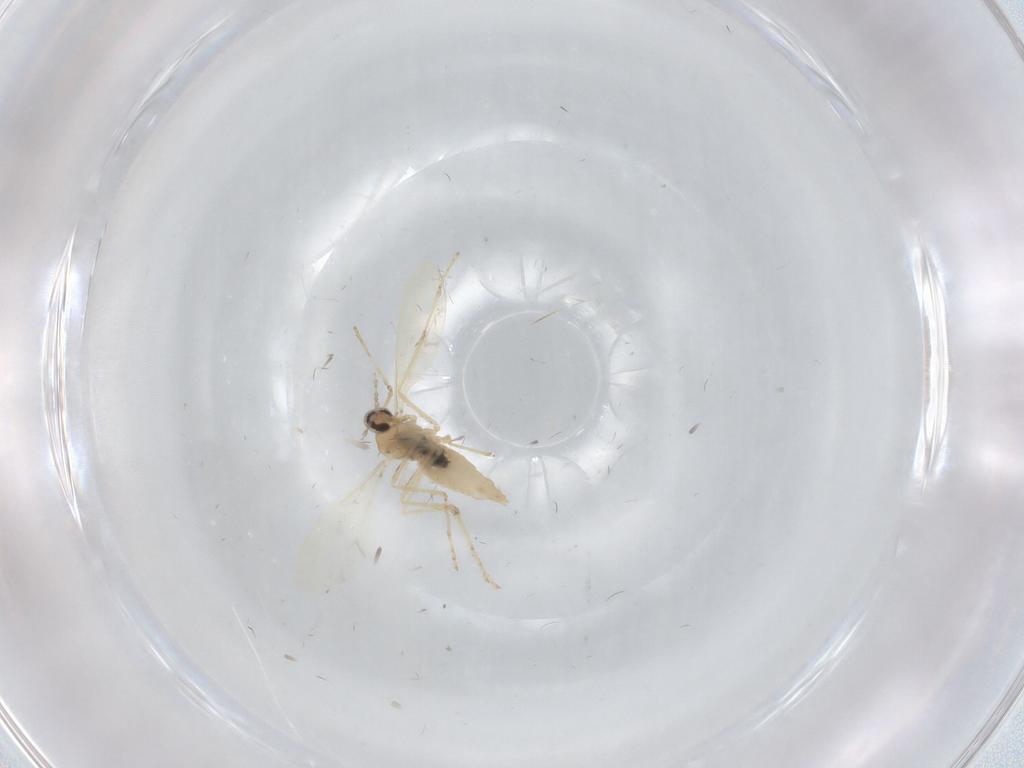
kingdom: Animalia
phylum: Arthropoda
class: Insecta
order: Diptera
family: Cecidomyiidae
